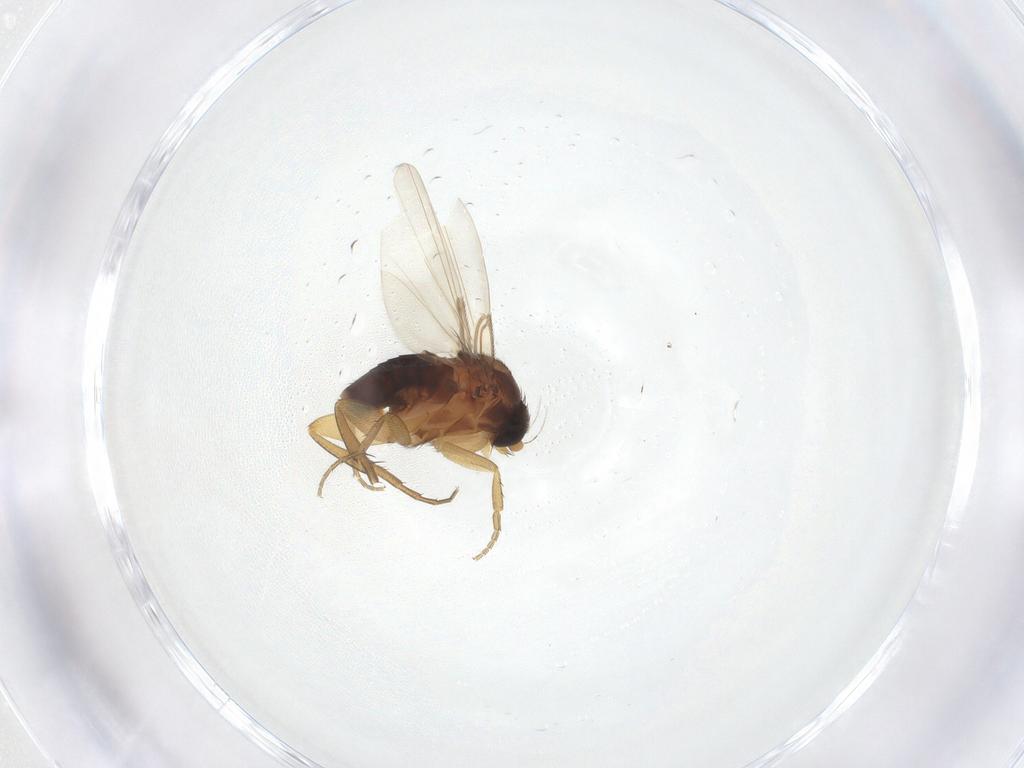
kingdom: Animalia
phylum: Arthropoda
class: Insecta
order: Diptera
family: Phoridae
